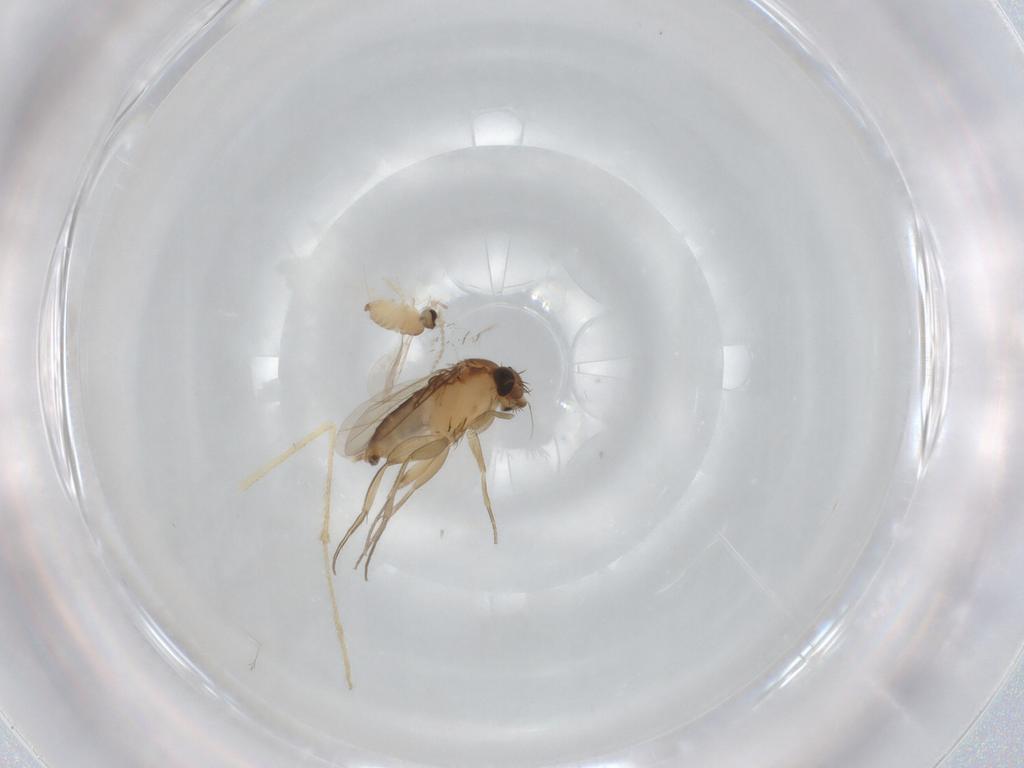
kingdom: Animalia
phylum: Arthropoda
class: Insecta
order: Diptera
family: Cecidomyiidae
